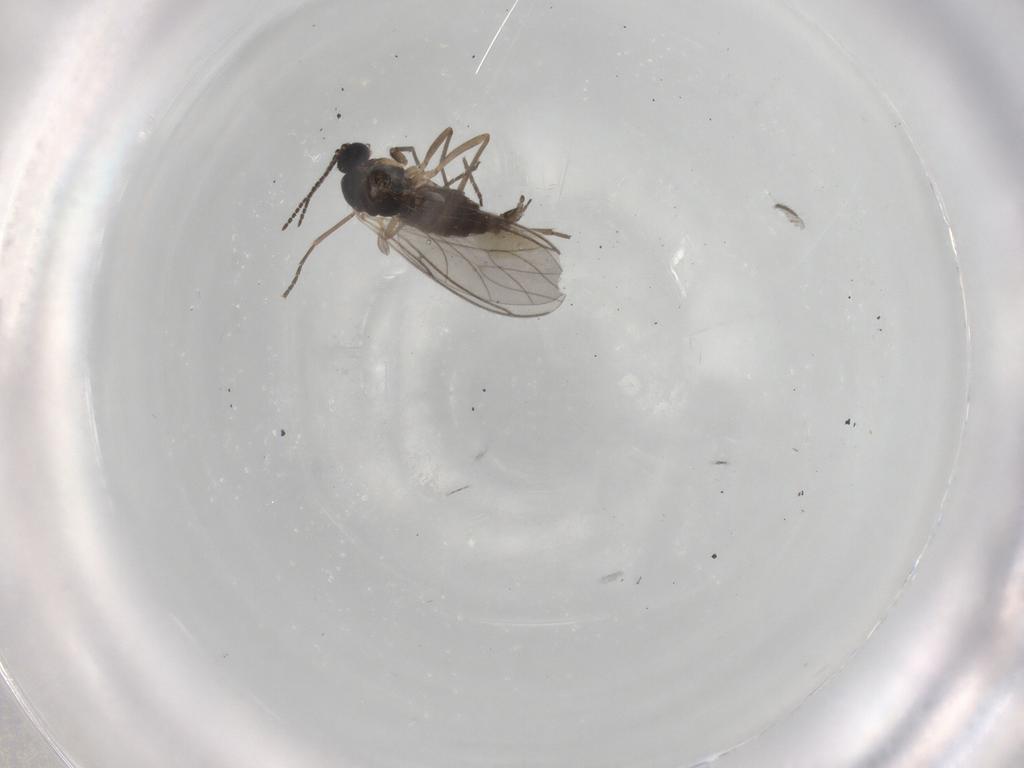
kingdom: Animalia
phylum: Arthropoda
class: Insecta
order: Diptera
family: Sciaridae
